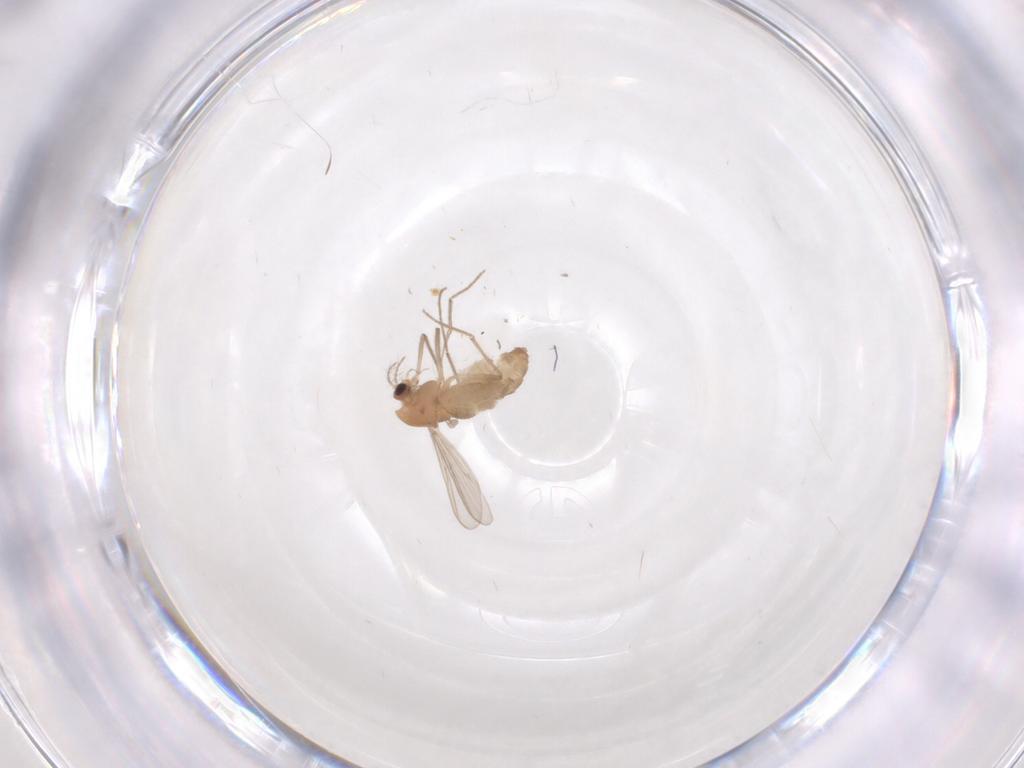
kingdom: Animalia
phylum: Arthropoda
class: Insecta
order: Diptera
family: Chironomidae
